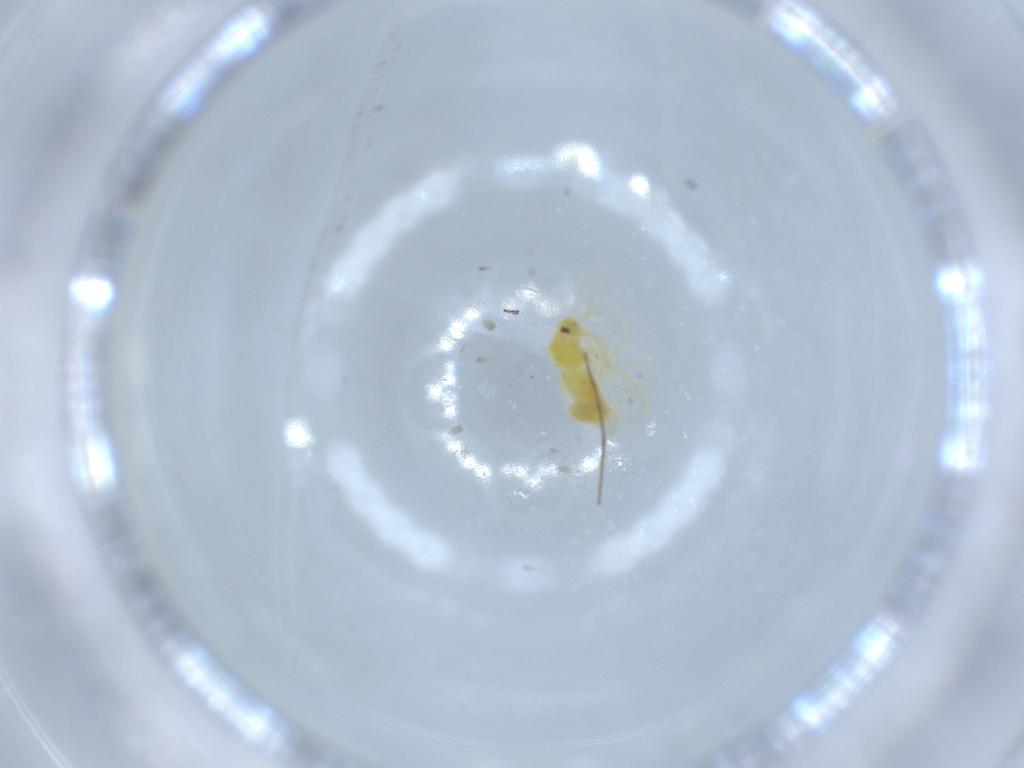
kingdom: Animalia
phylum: Arthropoda
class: Insecta
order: Hemiptera
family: Aleyrodidae
